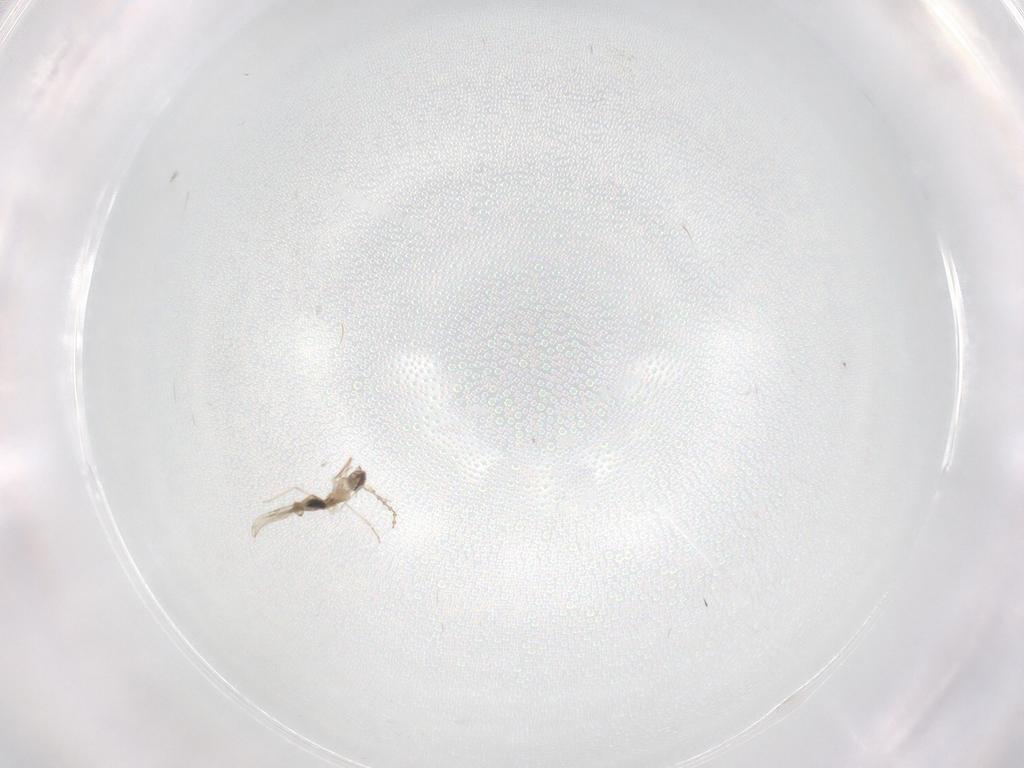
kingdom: Animalia
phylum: Arthropoda
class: Insecta
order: Diptera
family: Cecidomyiidae
